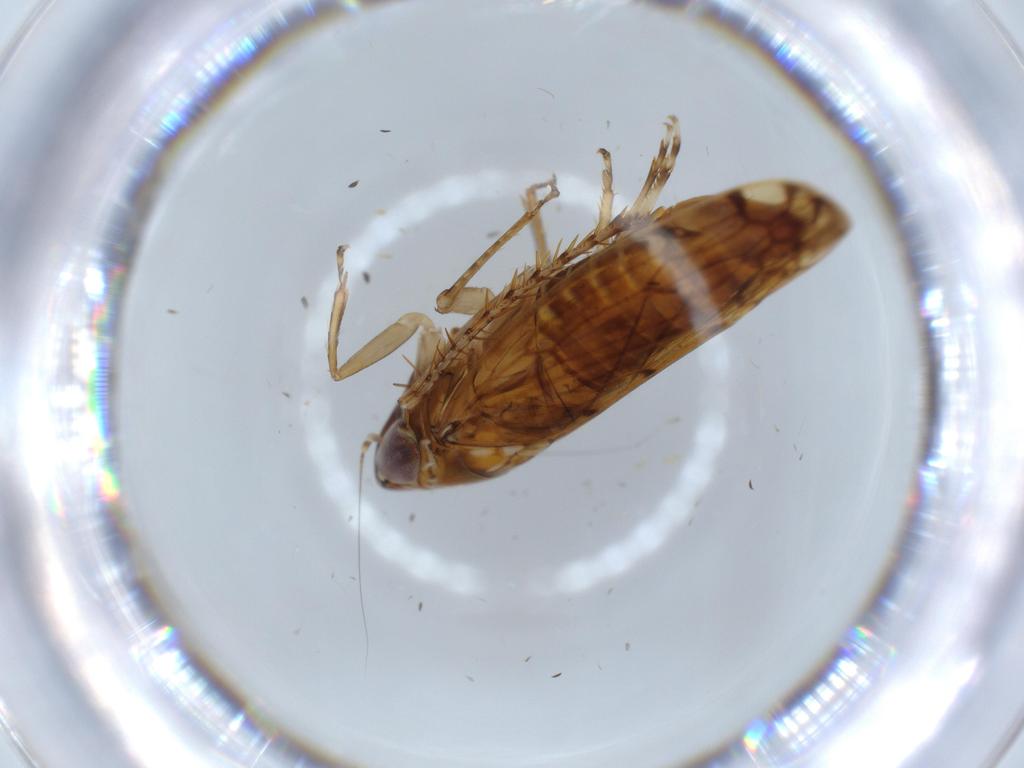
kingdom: Animalia
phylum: Arthropoda
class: Insecta
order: Hemiptera
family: Cicadellidae
